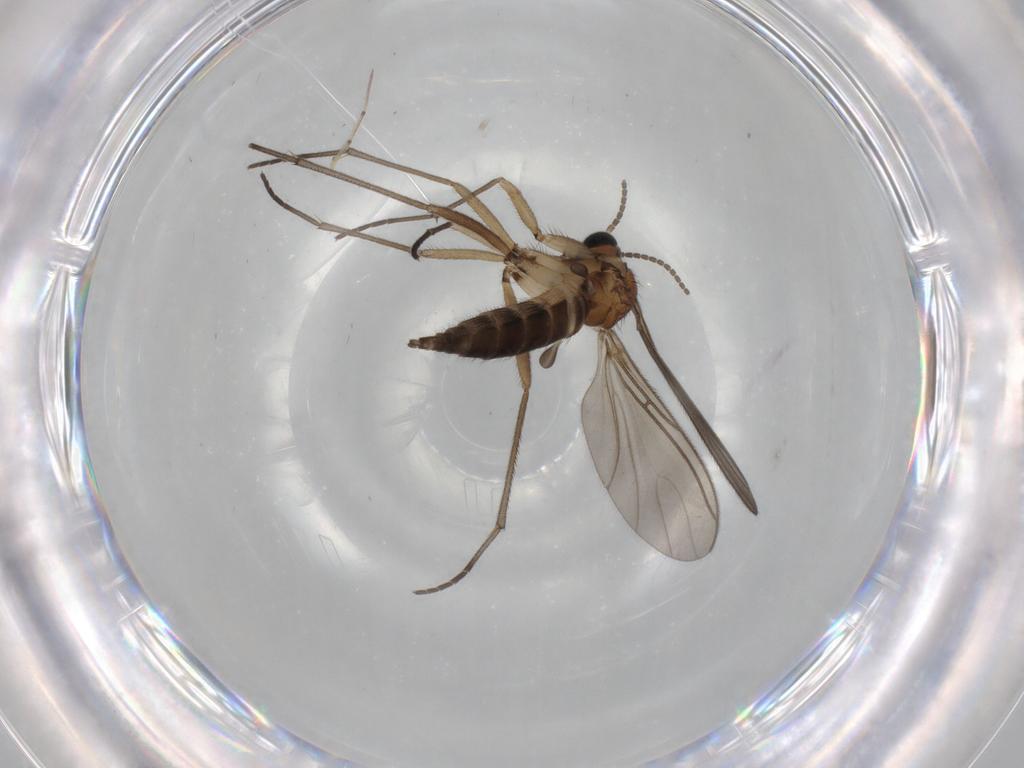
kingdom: Animalia
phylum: Arthropoda
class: Insecta
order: Diptera
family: Sciaridae
